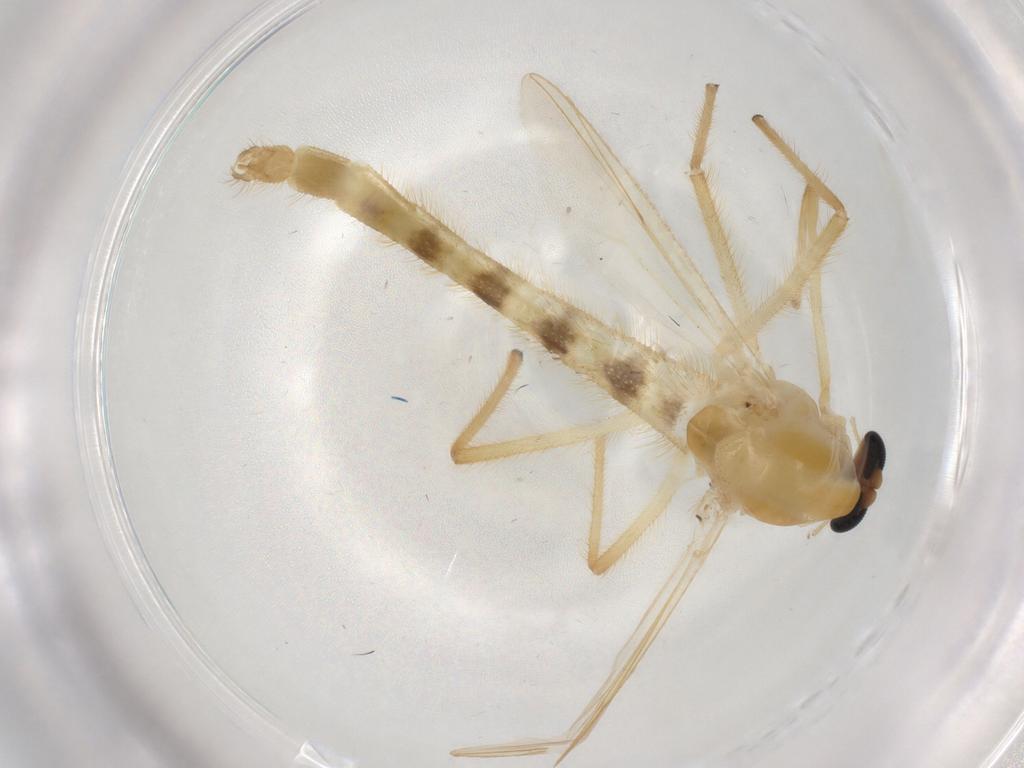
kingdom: Animalia
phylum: Arthropoda
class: Insecta
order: Diptera
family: Chironomidae
